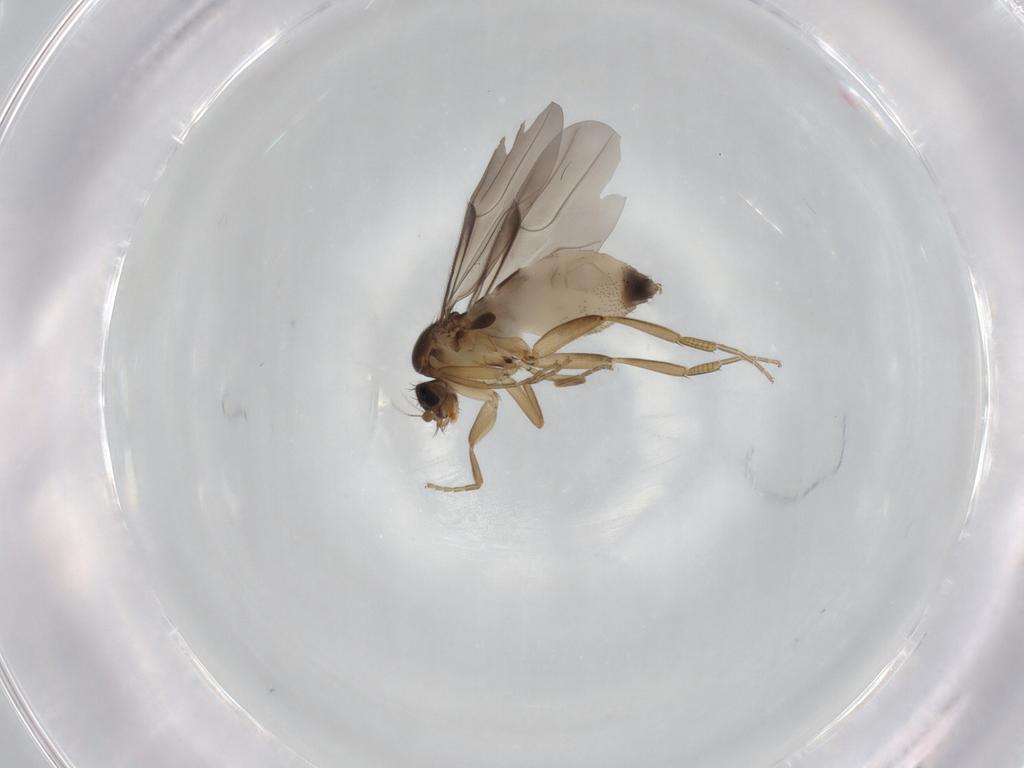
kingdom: Animalia
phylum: Arthropoda
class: Insecta
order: Diptera
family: Phoridae
